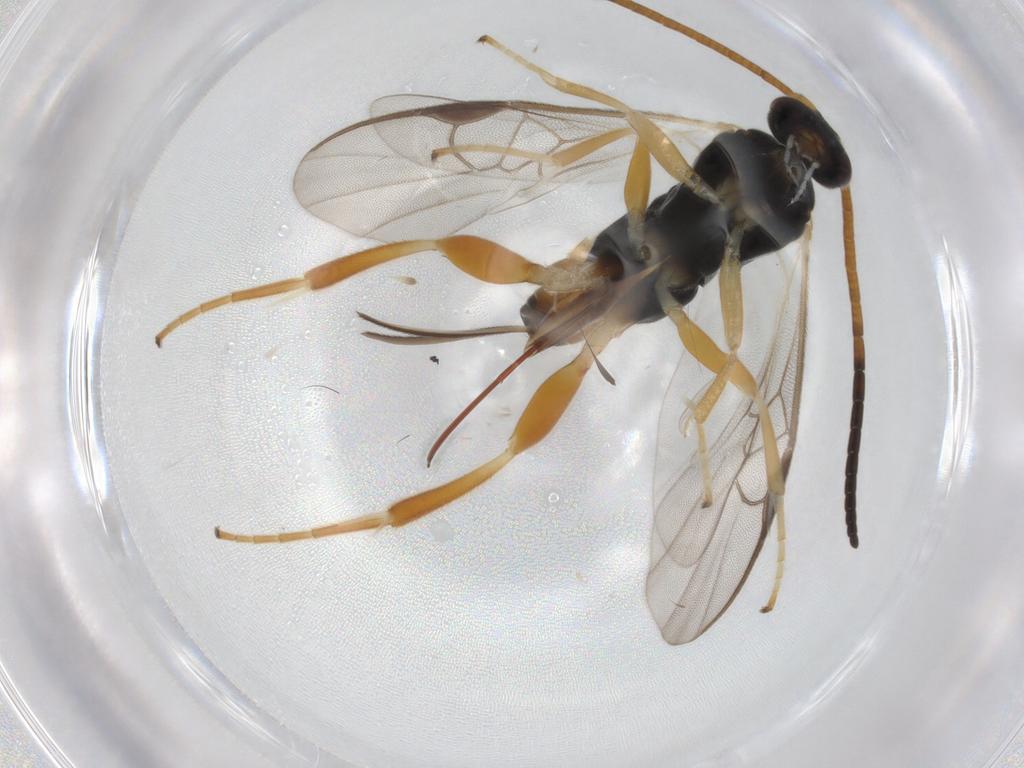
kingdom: Animalia
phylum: Arthropoda
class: Insecta
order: Hymenoptera
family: Braconidae
